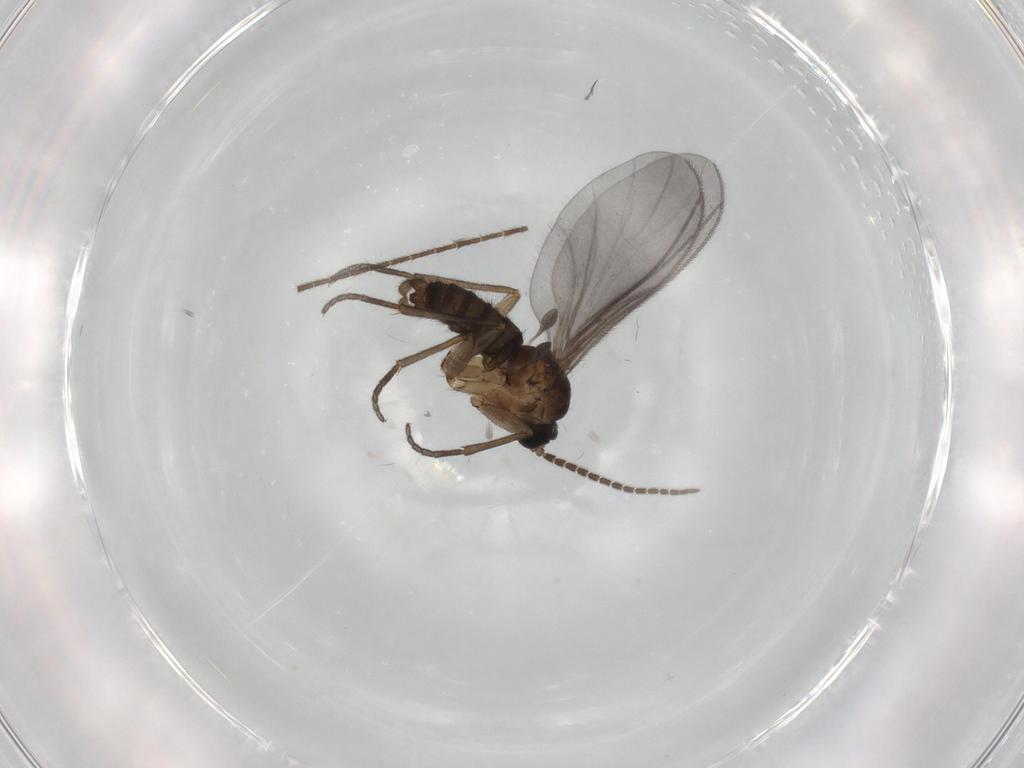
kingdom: Animalia
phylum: Arthropoda
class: Insecta
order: Diptera
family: Sciaridae
